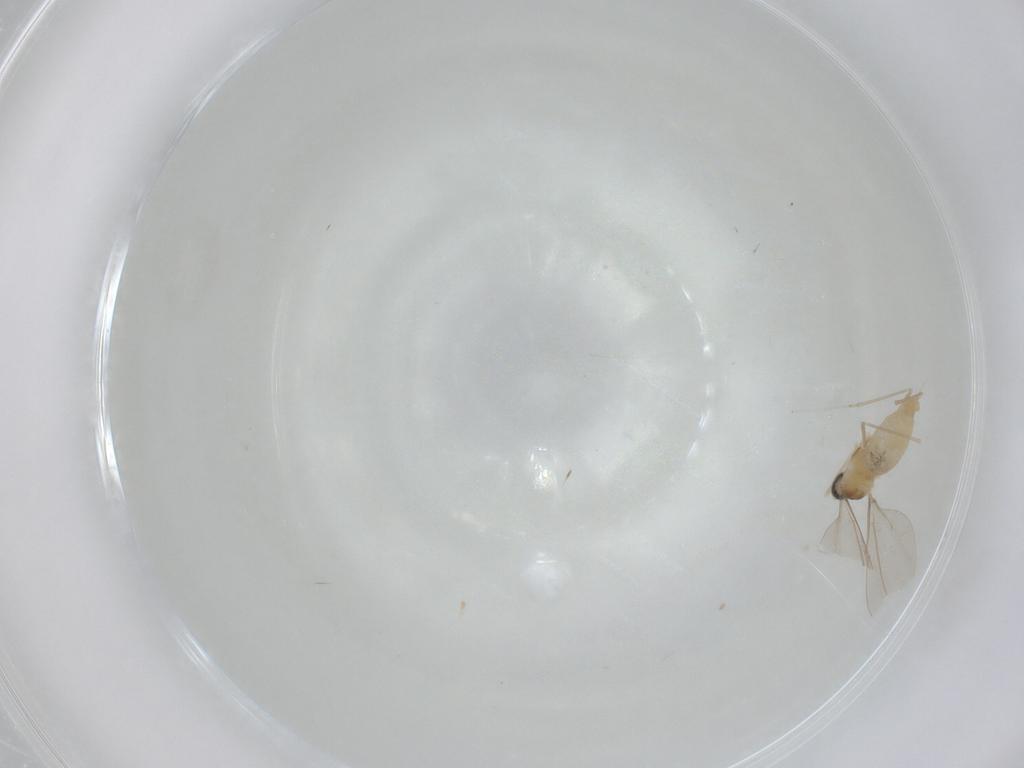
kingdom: Animalia
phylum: Arthropoda
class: Insecta
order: Diptera
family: Cecidomyiidae
